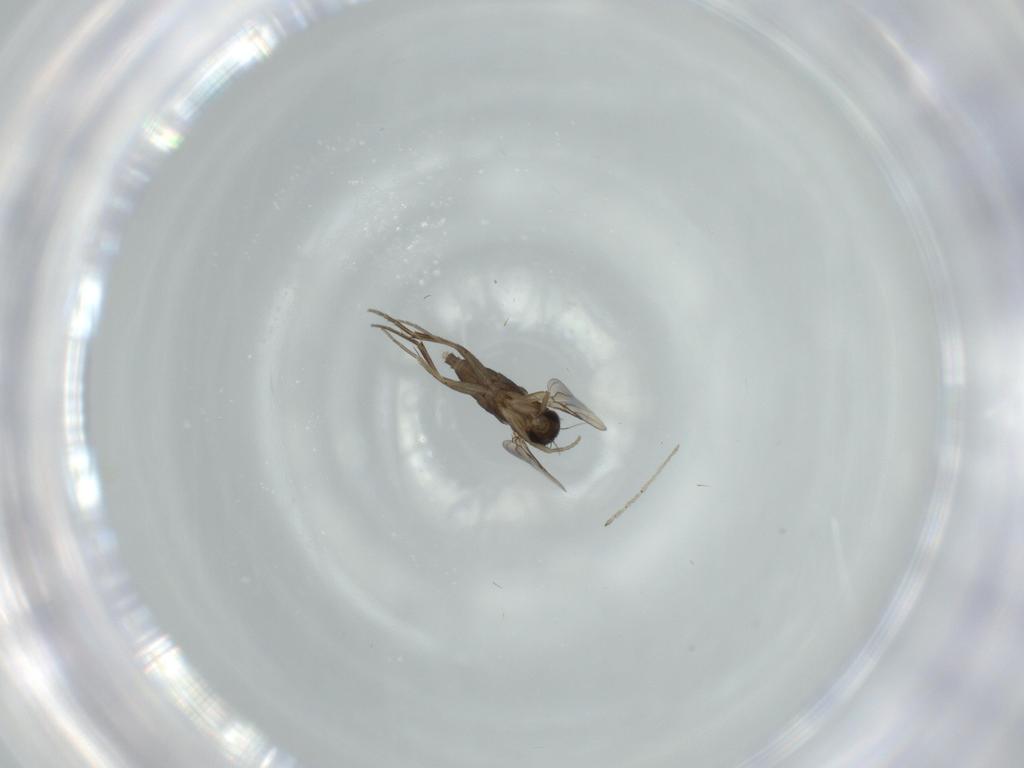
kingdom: Animalia
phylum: Arthropoda
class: Insecta
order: Diptera
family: Phoridae
